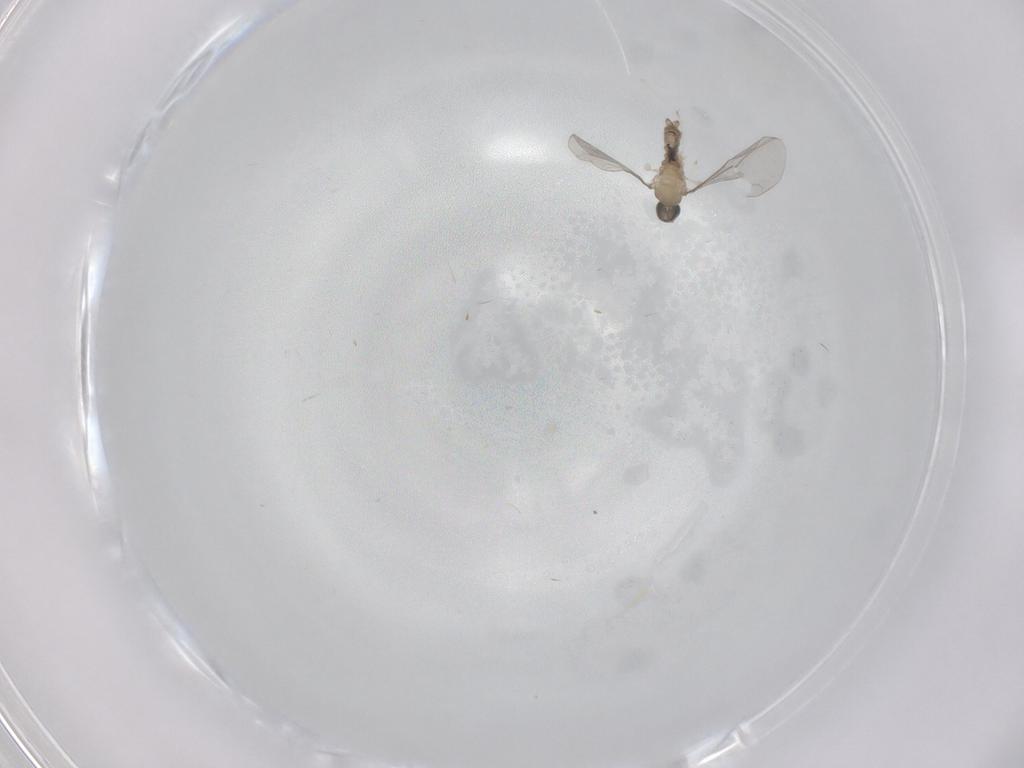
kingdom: Animalia
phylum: Arthropoda
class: Insecta
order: Diptera
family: Cecidomyiidae
